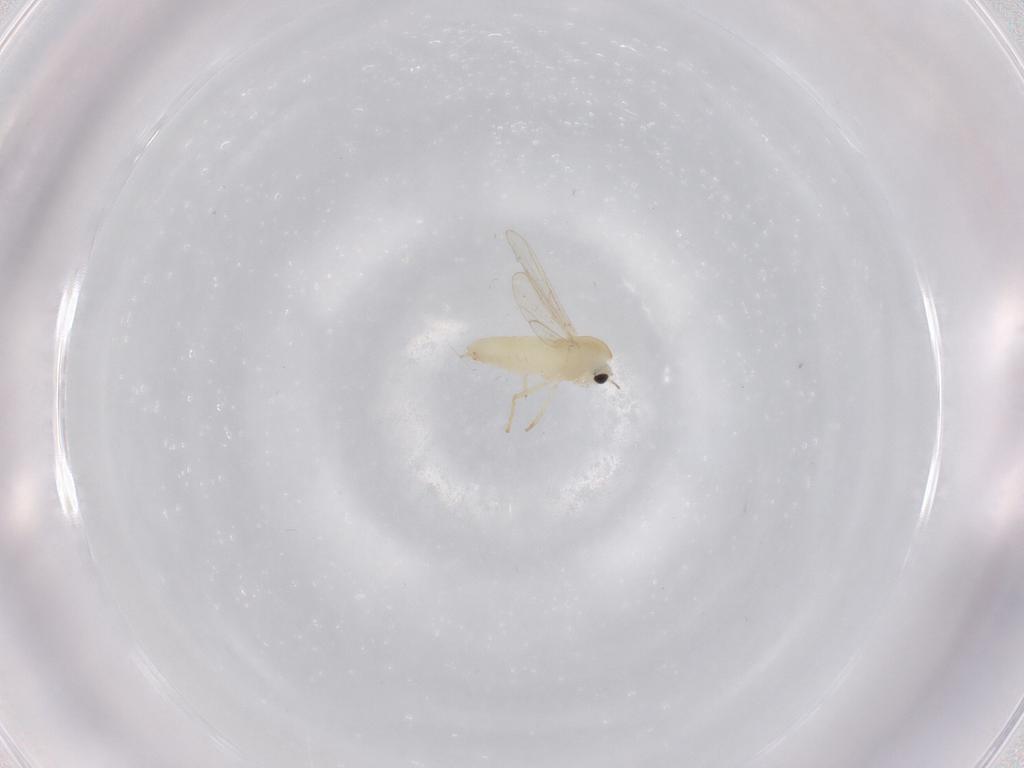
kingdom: Animalia
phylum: Arthropoda
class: Insecta
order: Diptera
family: Chironomidae
